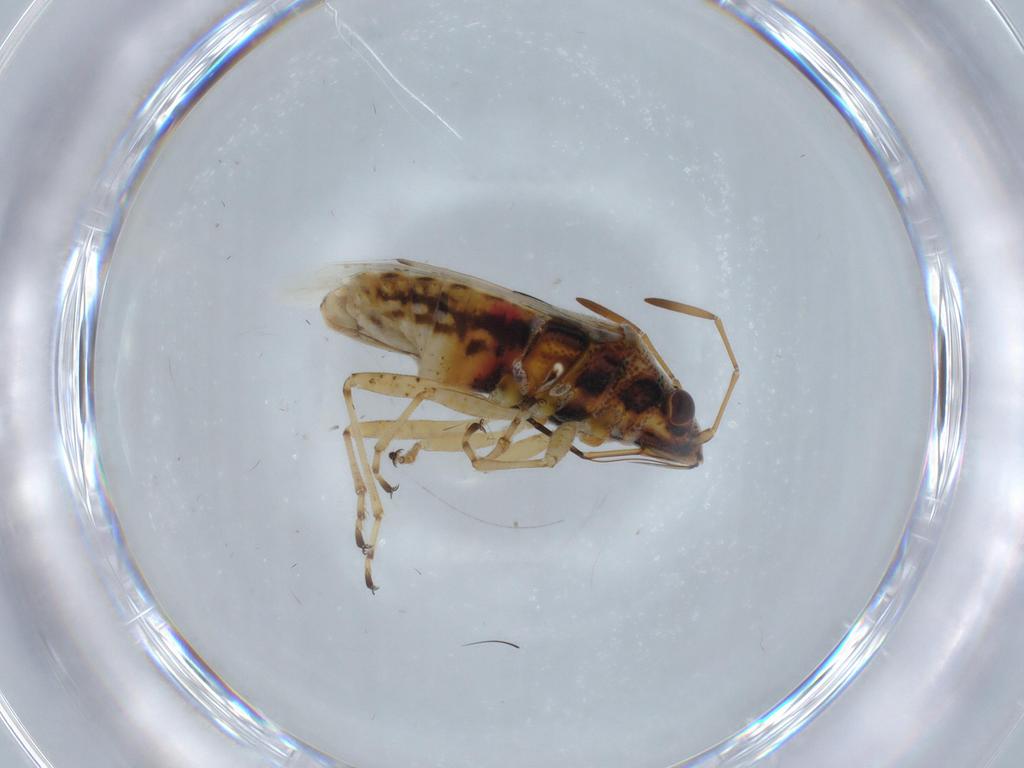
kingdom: Animalia
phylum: Arthropoda
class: Insecta
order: Hemiptera
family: Lygaeidae
